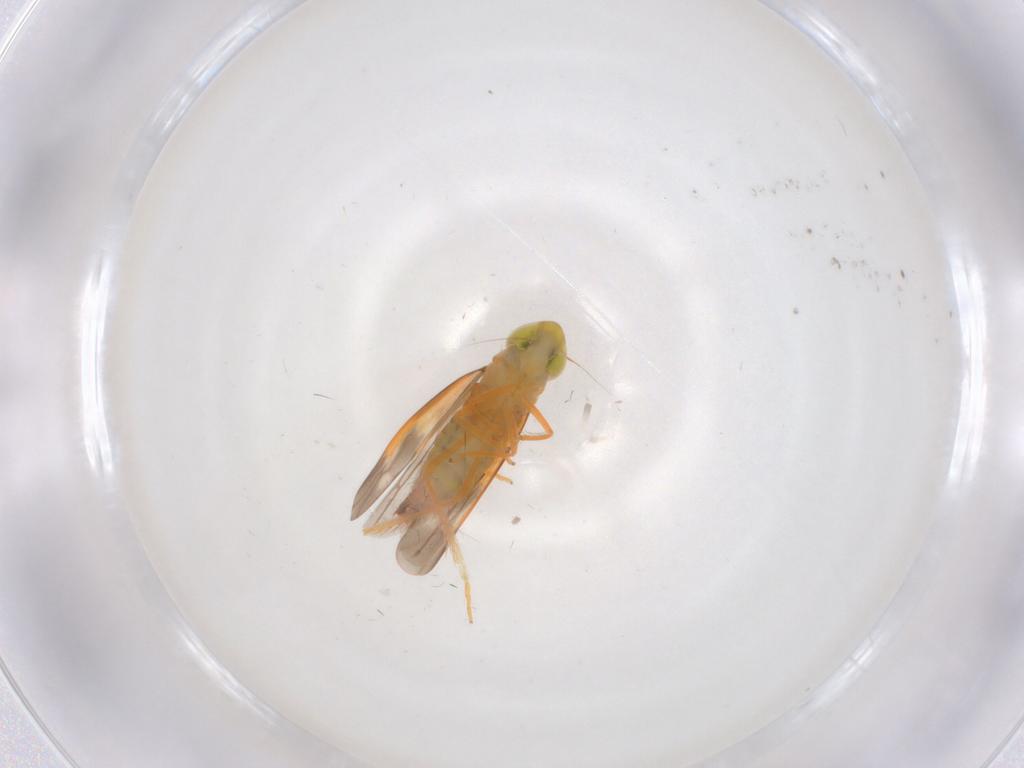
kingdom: Animalia
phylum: Arthropoda
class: Insecta
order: Hemiptera
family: Cicadellidae
